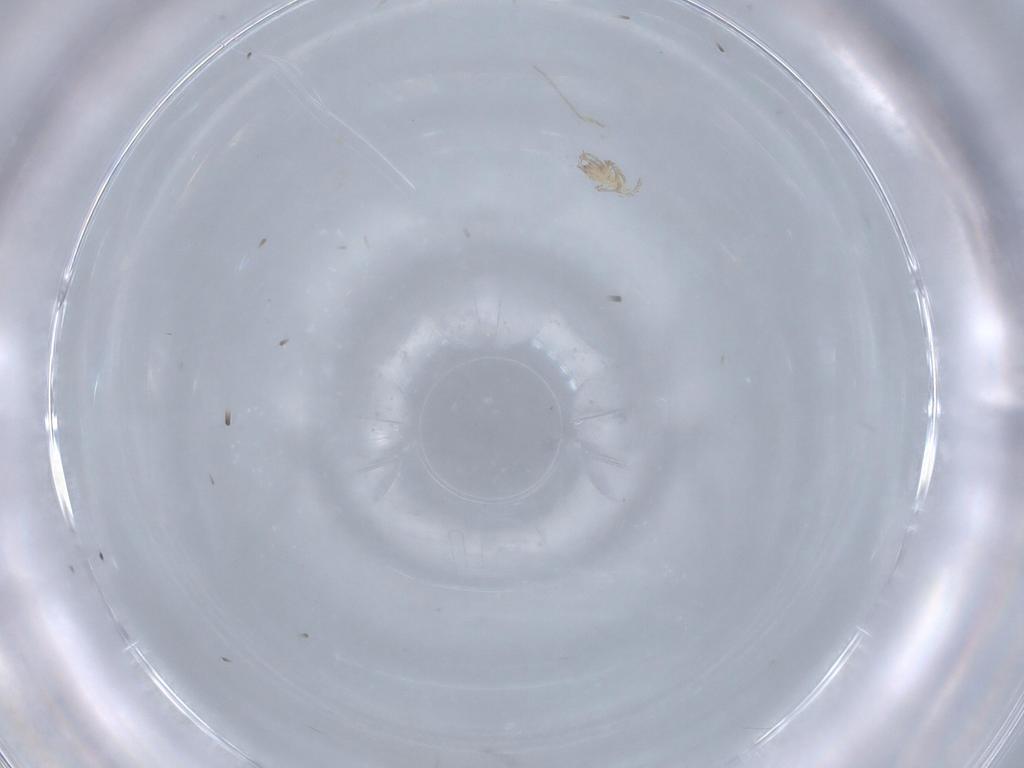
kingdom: Animalia
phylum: Arthropoda
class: Arachnida
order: Trombidiformes
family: Erythraeidae
